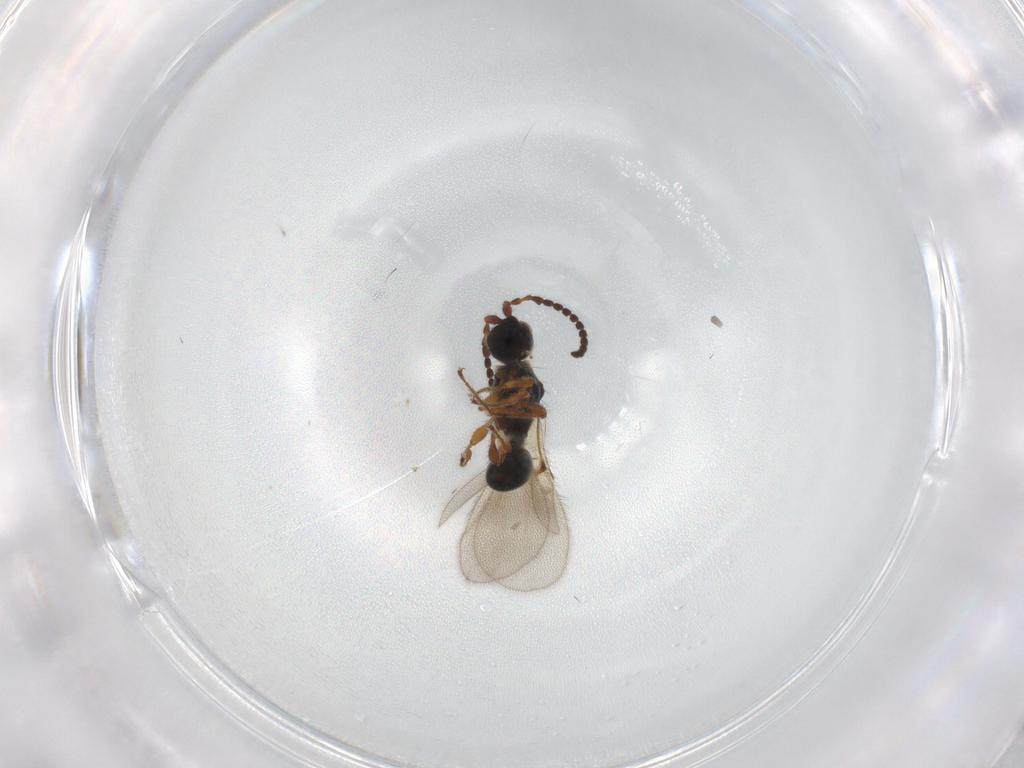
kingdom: Animalia
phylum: Arthropoda
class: Insecta
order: Hymenoptera
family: Diapriidae
